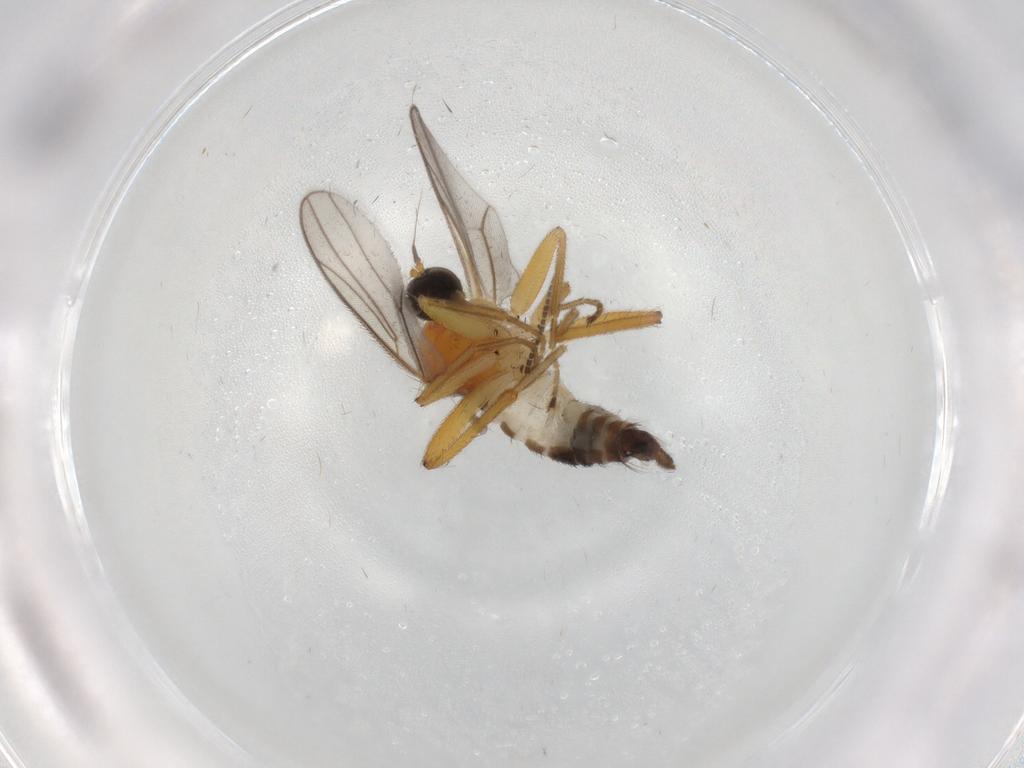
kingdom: Animalia
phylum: Arthropoda
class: Insecta
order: Diptera
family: Hybotidae
